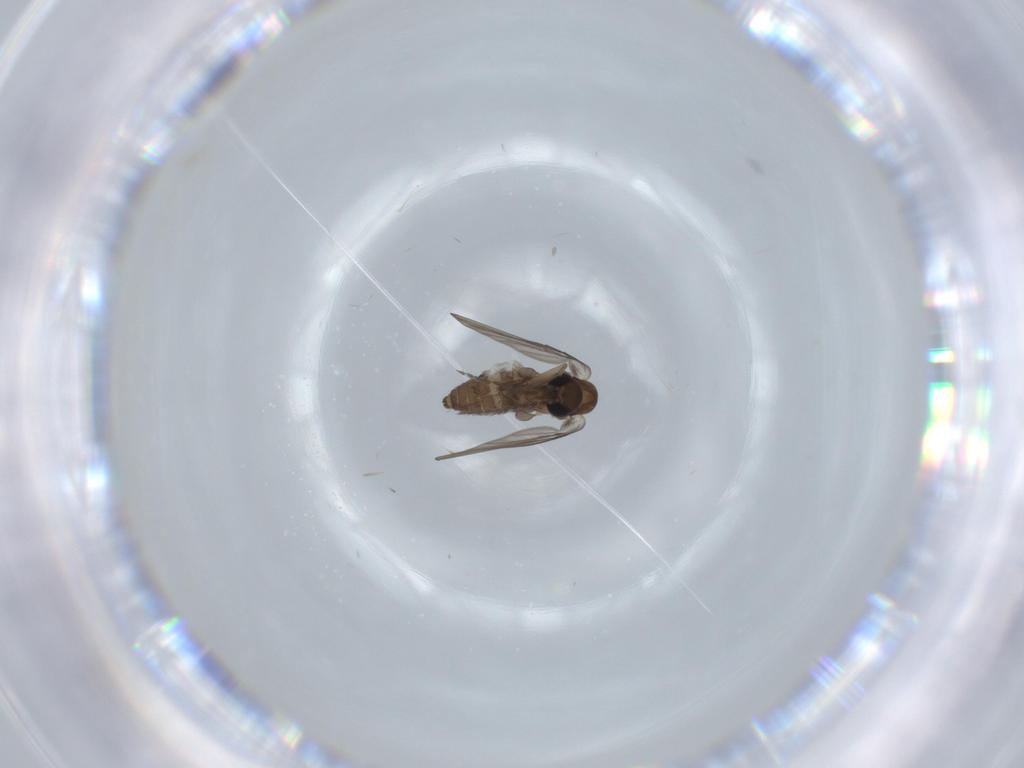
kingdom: Animalia
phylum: Arthropoda
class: Insecta
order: Diptera
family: Psychodidae
